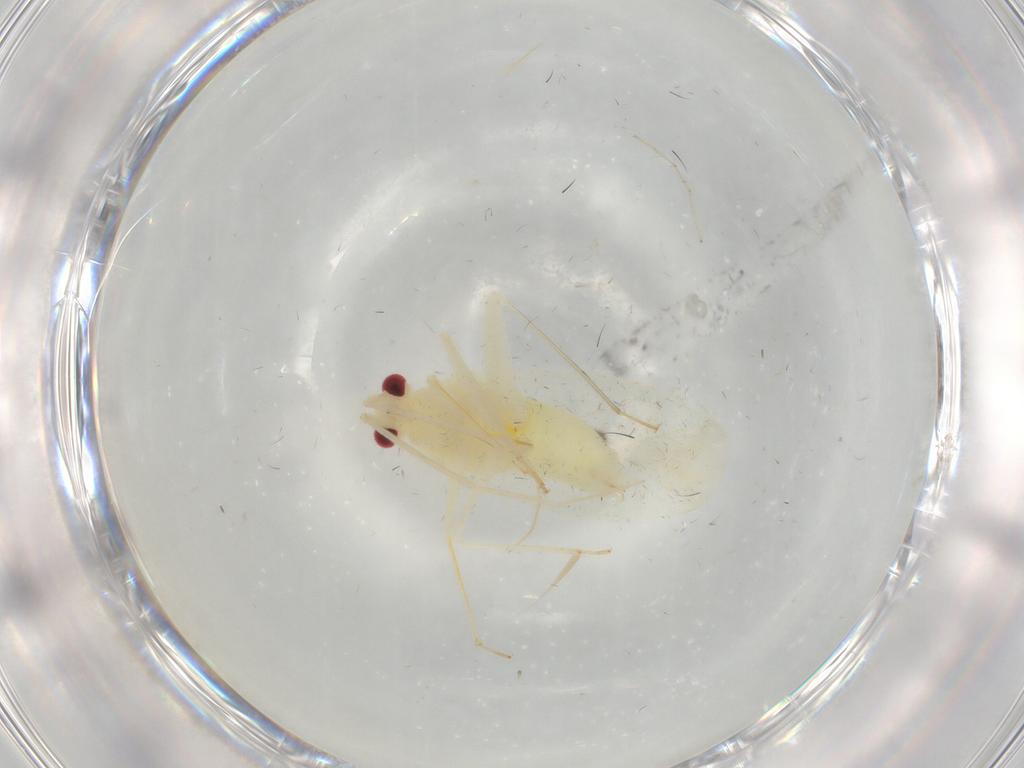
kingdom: Animalia
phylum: Arthropoda
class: Insecta
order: Hemiptera
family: Miridae
